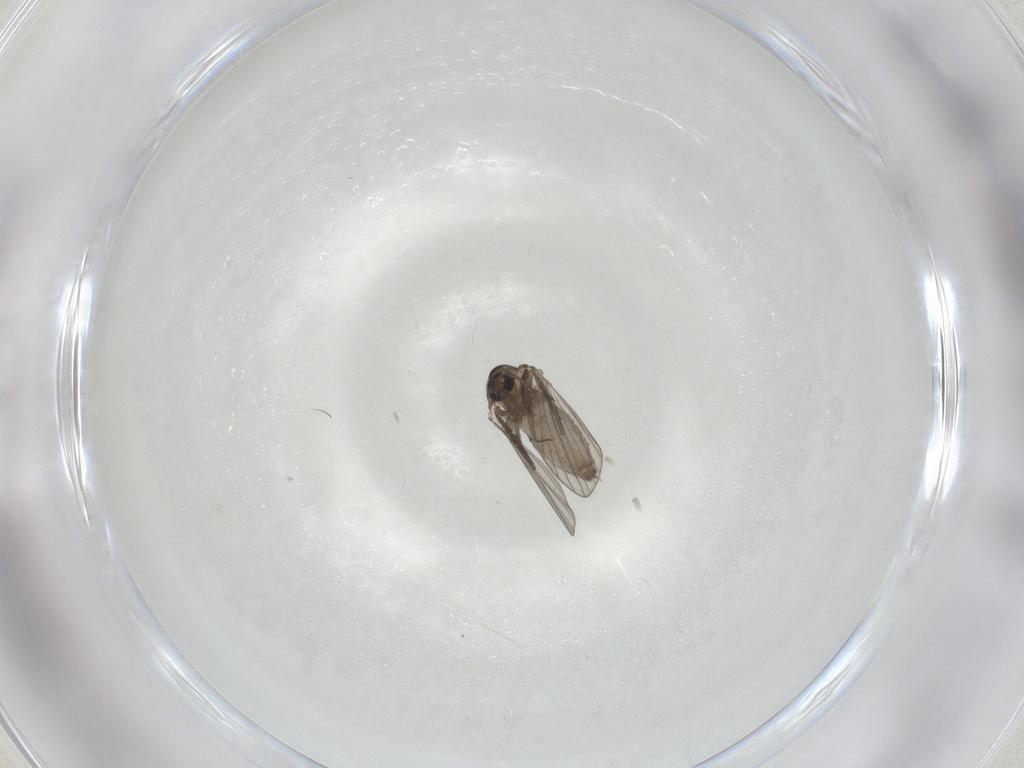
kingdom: Animalia
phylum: Arthropoda
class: Insecta
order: Diptera
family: Psychodidae
